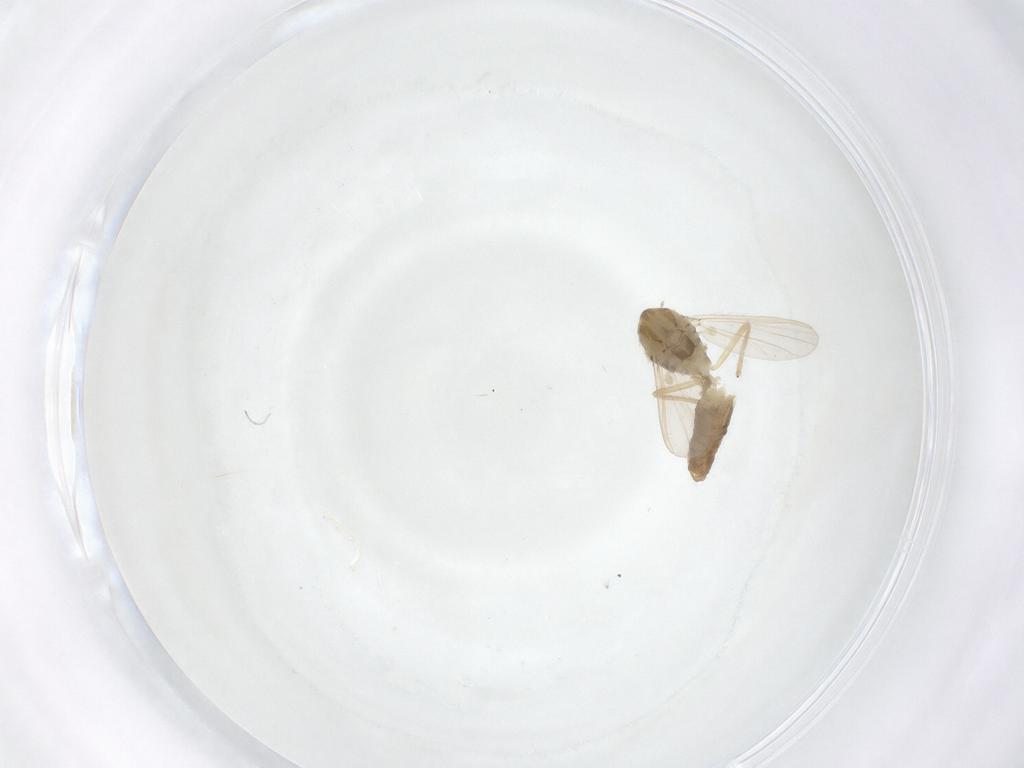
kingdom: Animalia
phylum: Arthropoda
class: Insecta
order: Diptera
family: Chironomidae
